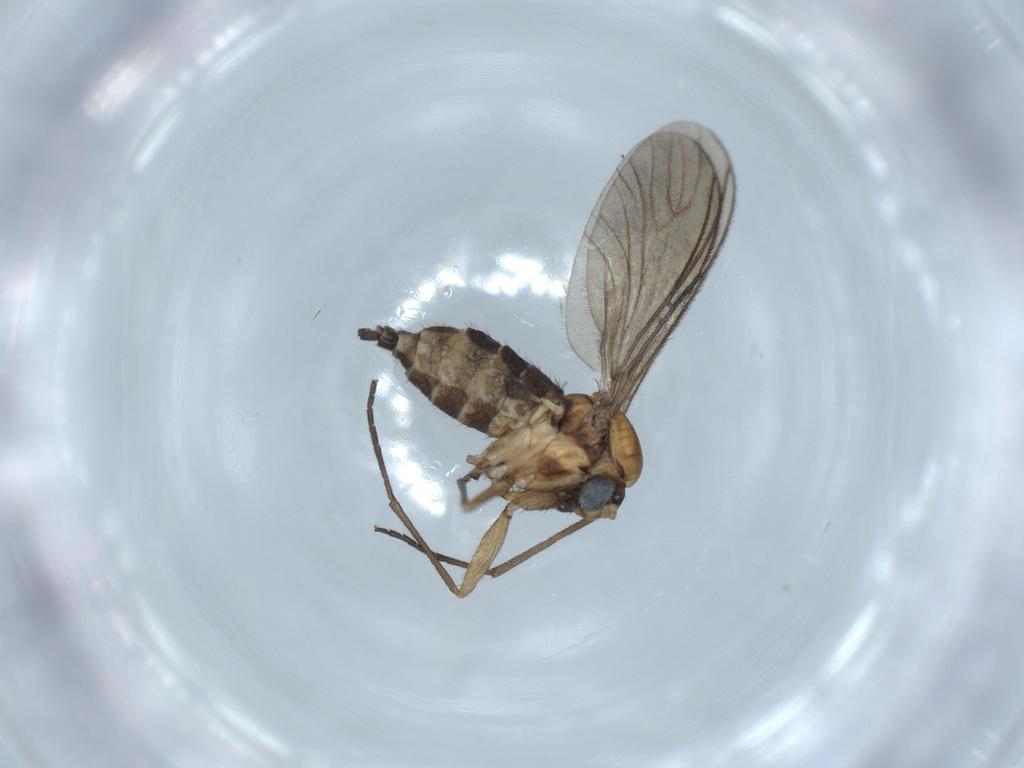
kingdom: Animalia
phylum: Arthropoda
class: Insecta
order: Diptera
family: Sciaridae
